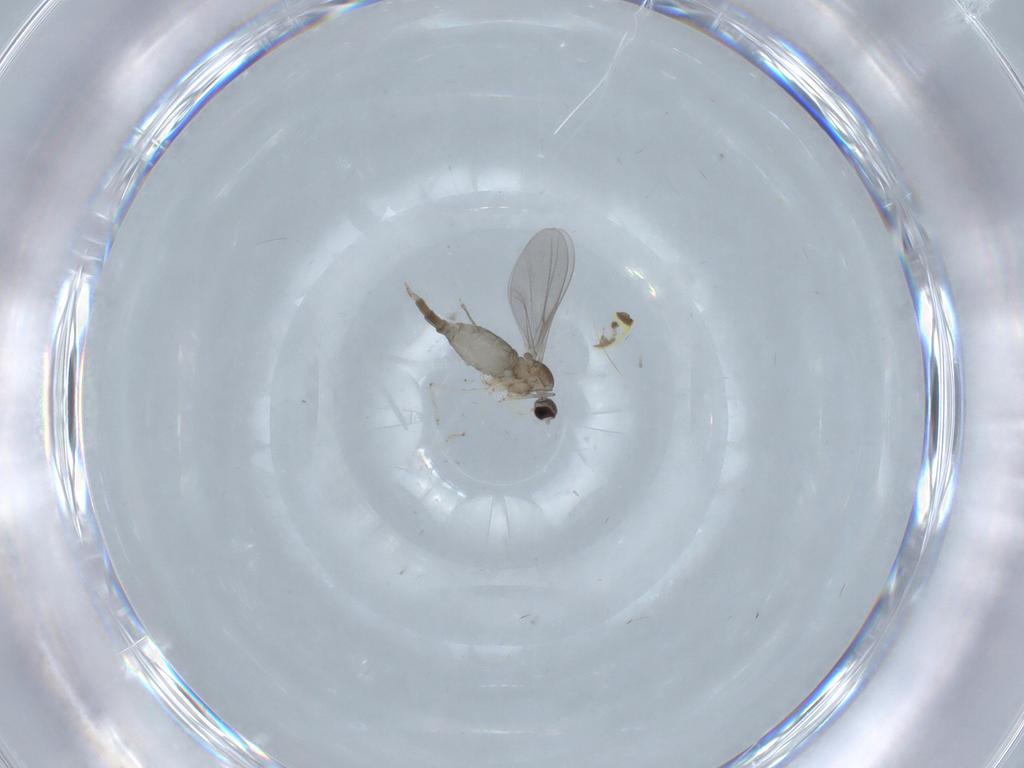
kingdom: Animalia
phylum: Arthropoda
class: Insecta
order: Diptera
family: Cecidomyiidae
